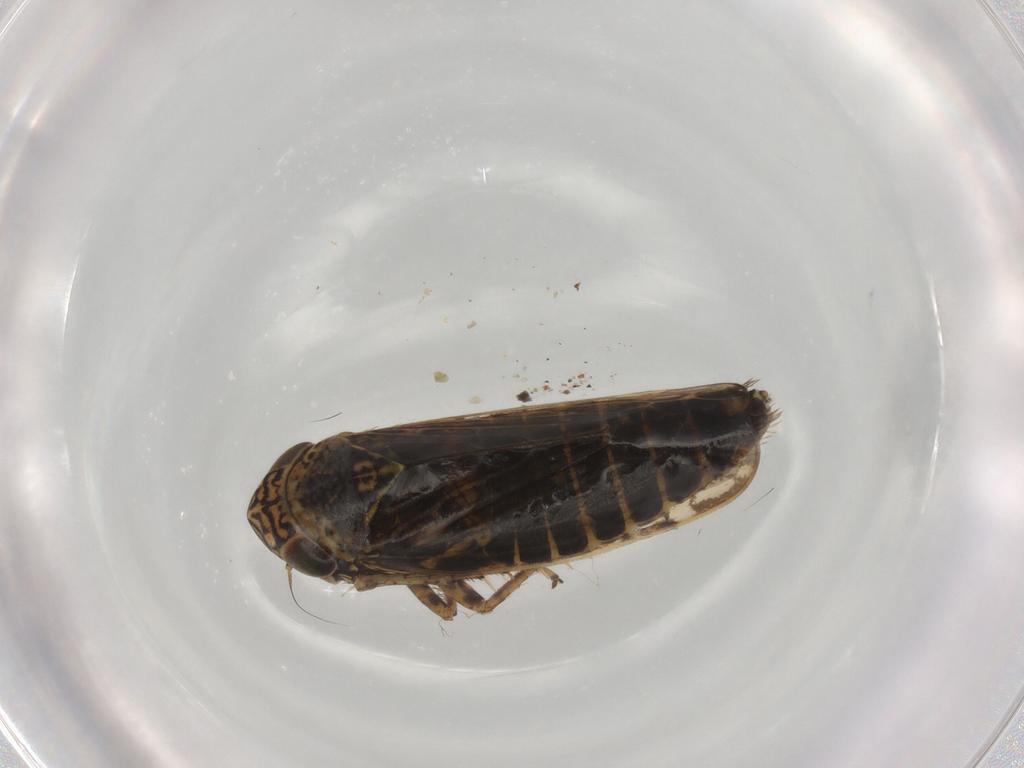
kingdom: Animalia
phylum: Arthropoda
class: Insecta
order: Hemiptera
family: Cicadellidae
